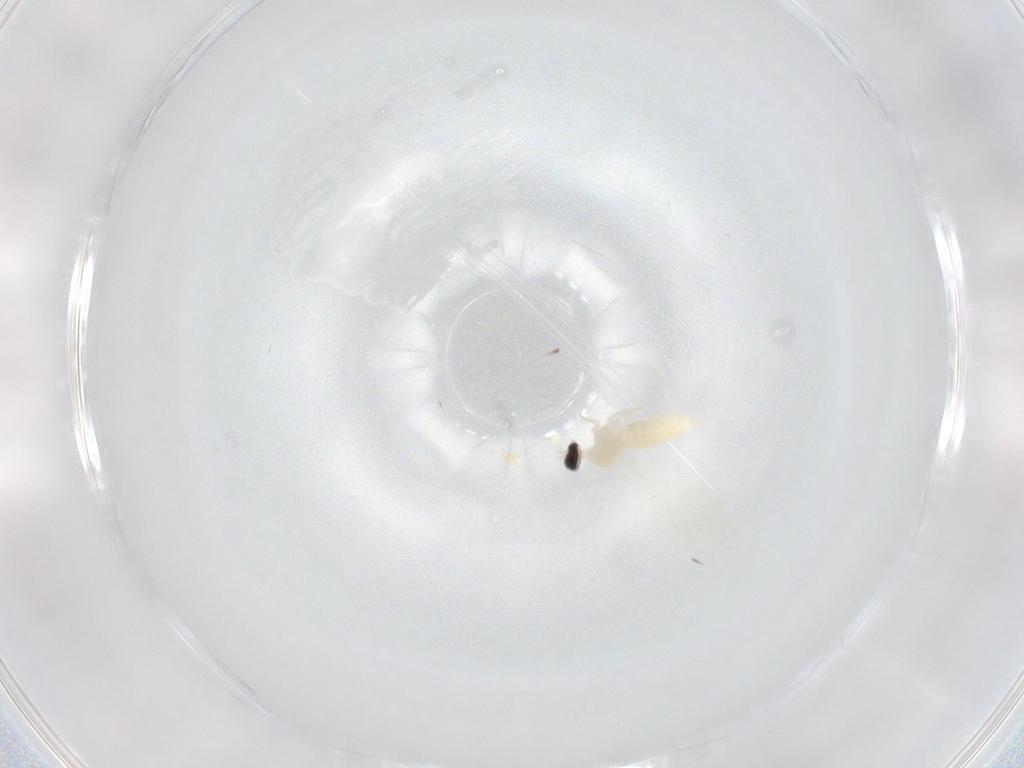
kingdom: Animalia
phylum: Arthropoda
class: Insecta
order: Diptera
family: Cecidomyiidae
